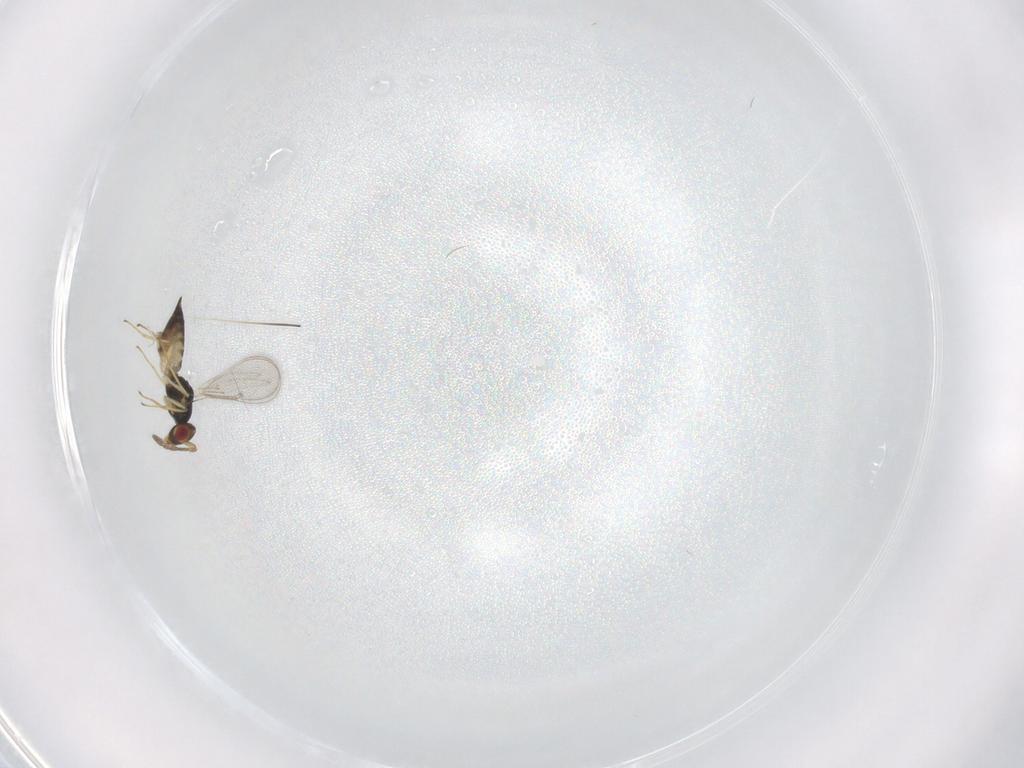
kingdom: Animalia
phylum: Arthropoda
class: Insecta
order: Hymenoptera
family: Eulophidae
